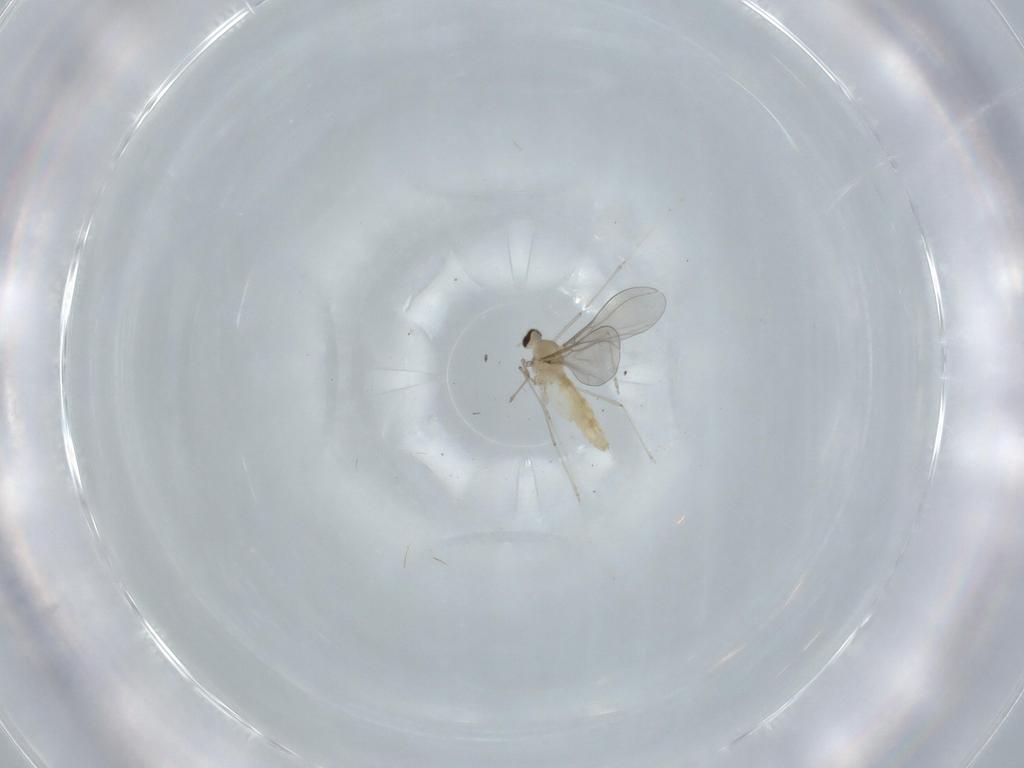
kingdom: Animalia
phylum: Arthropoda
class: Insecta
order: Diptera
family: Cecidomyiidae
